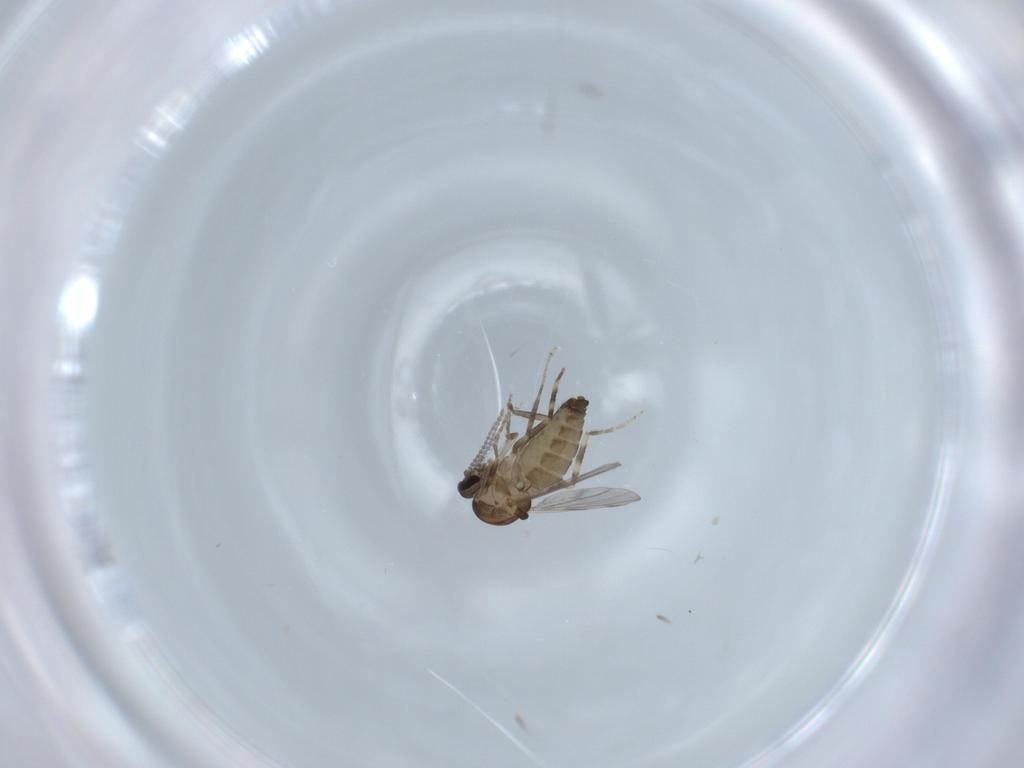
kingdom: Animalia
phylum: Arthropoda
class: Insecta
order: Diptera
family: Ceratopogonidae
